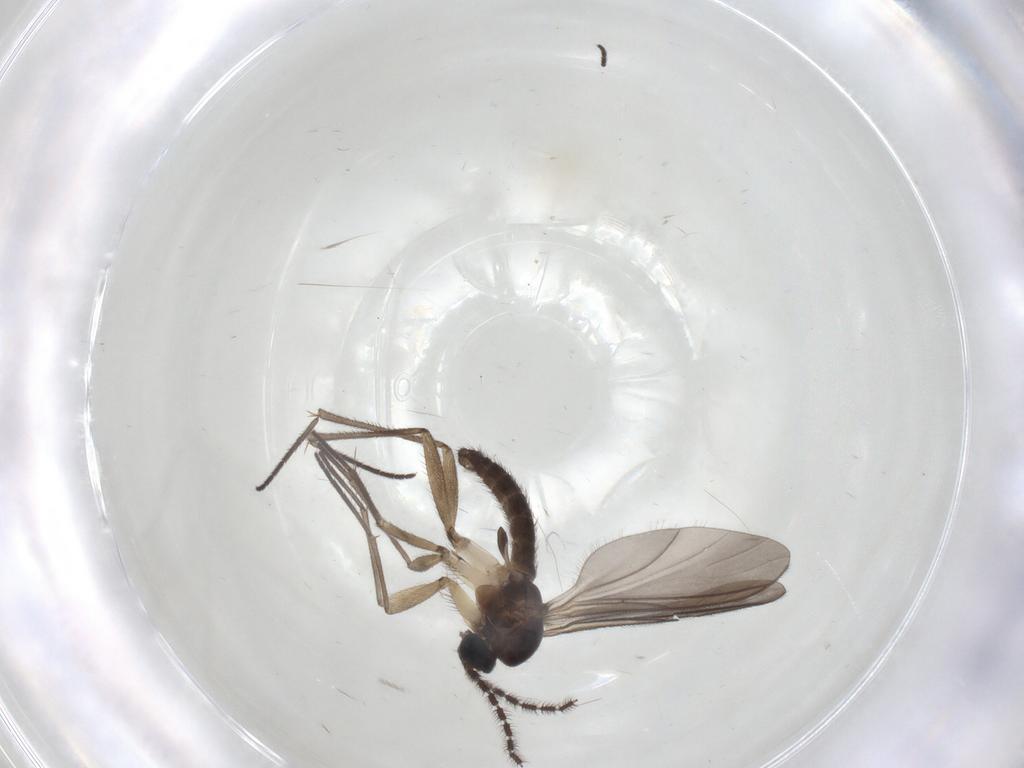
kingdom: Animalia
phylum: Arthropoda
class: Insecta
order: Diptera
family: Sciaridae
